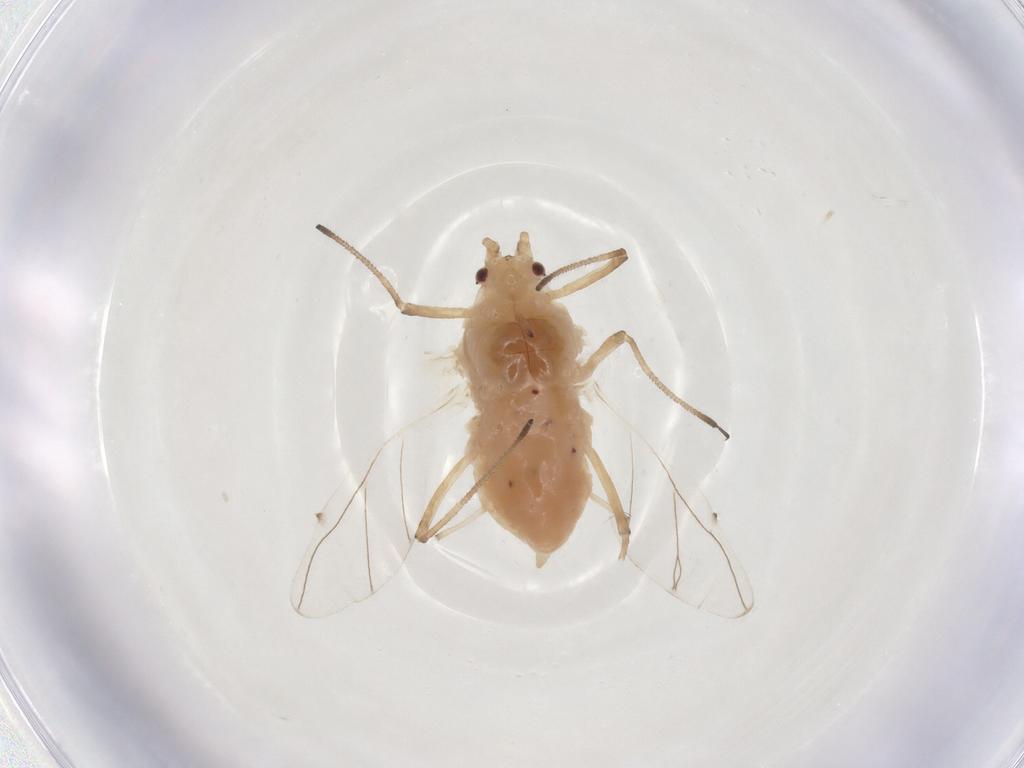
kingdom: Animalia
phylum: Arthropoda
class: Insecta
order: Hemiptera
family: Aphididae
